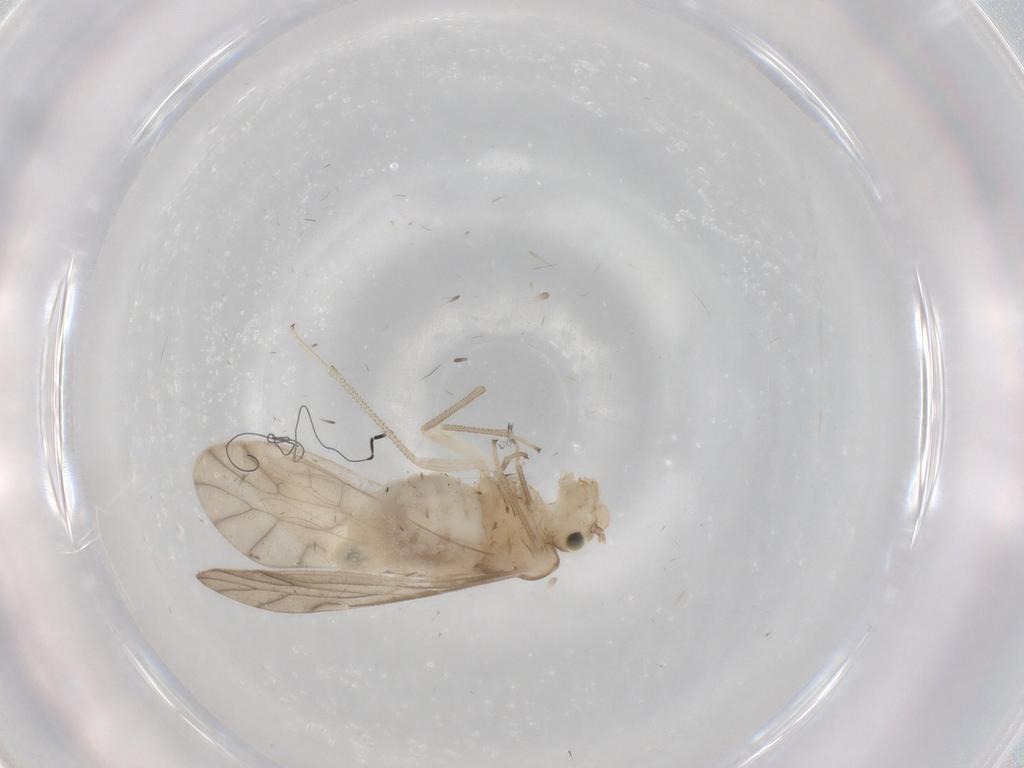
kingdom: Animalia
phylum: Arthropoda
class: Insecta
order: Psocodea
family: Caeciliusidae
